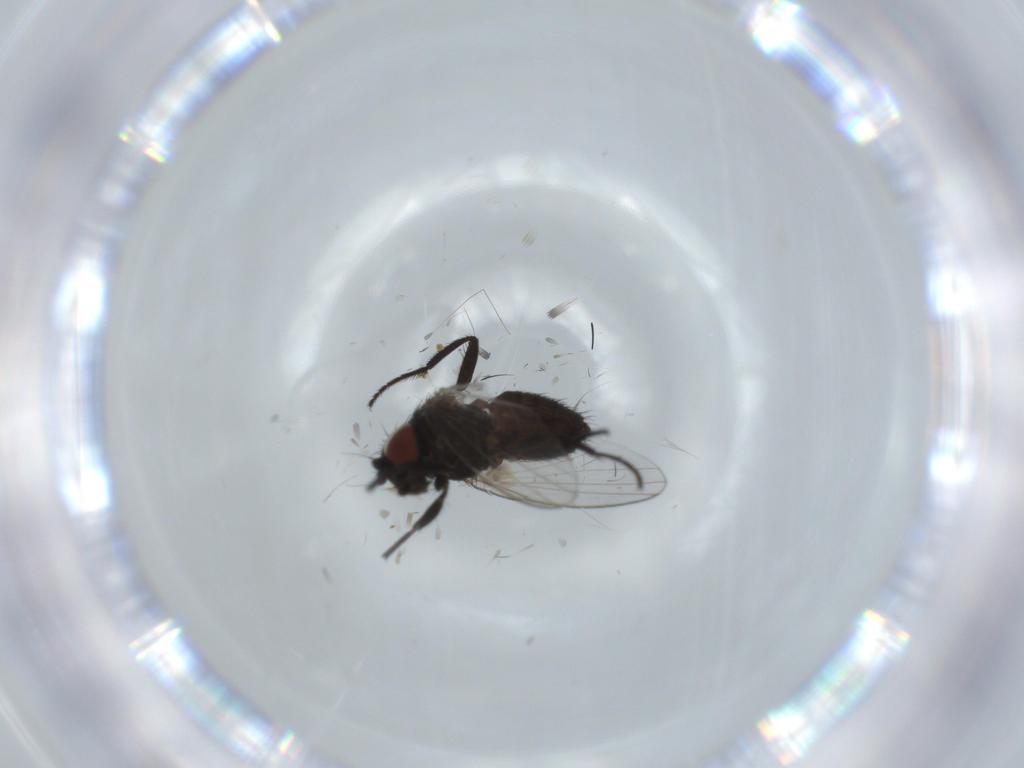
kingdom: Animalia
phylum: Arthropoda
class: Insecta
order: Diptera
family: Milichiidae
